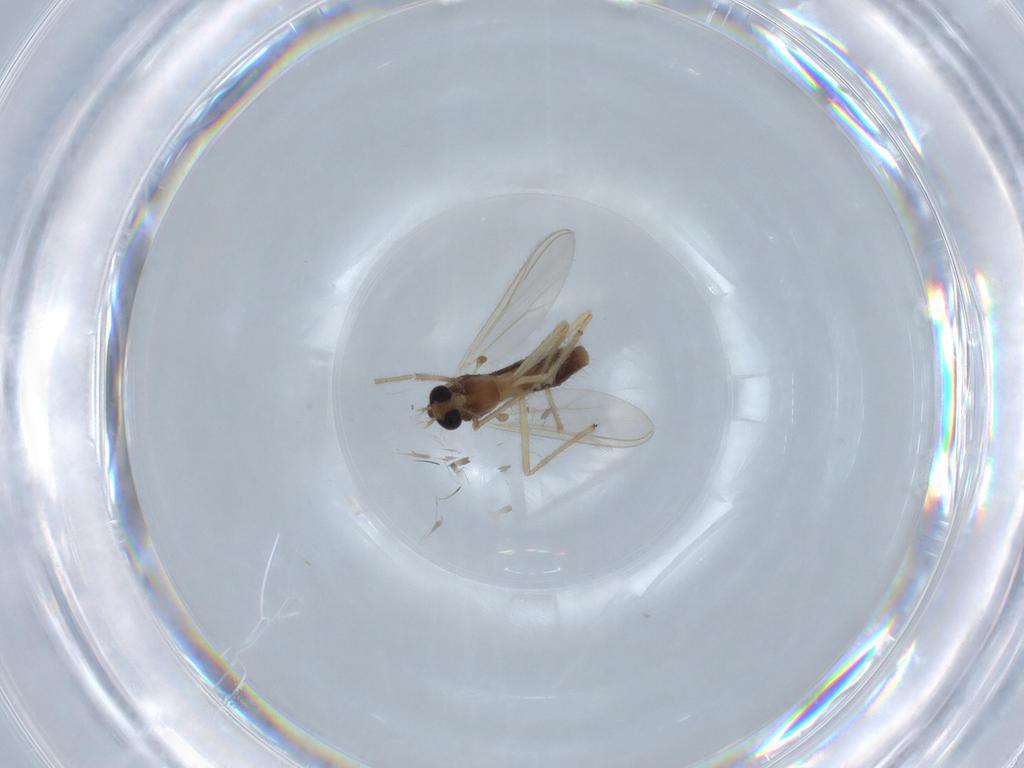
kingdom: Animalia
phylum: Arthropoda
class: Insecta
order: Diptera
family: Chironomidae
